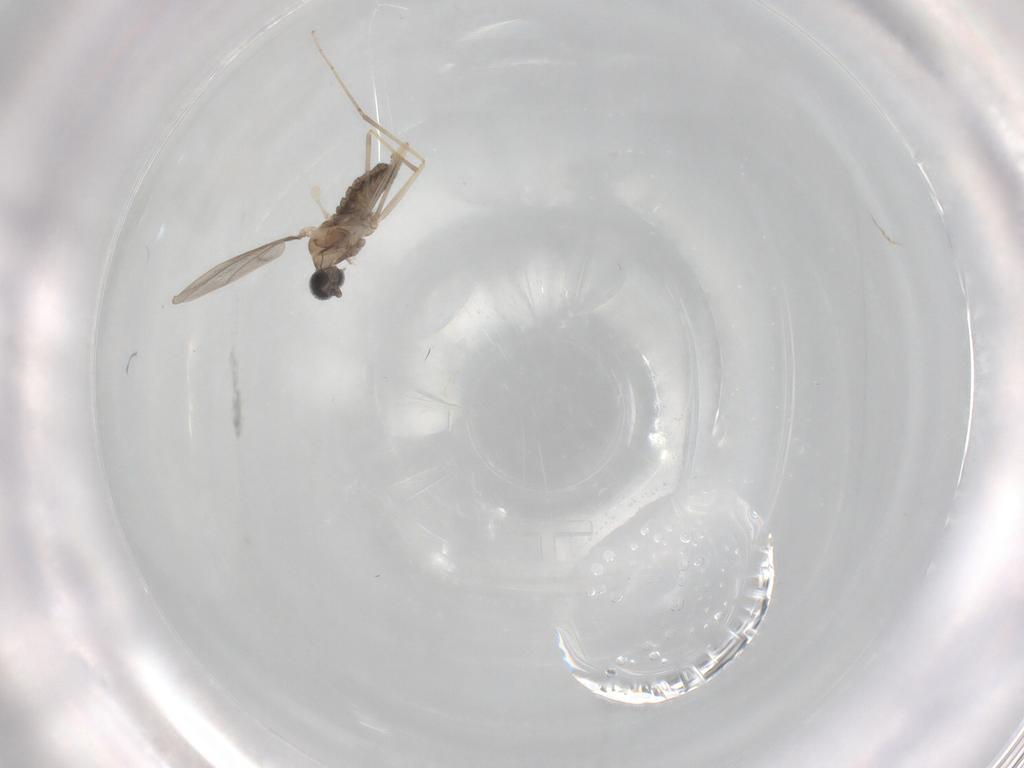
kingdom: Animalia
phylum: Arthropoda
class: Insecta
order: Diptera
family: Cecidomyiidae
